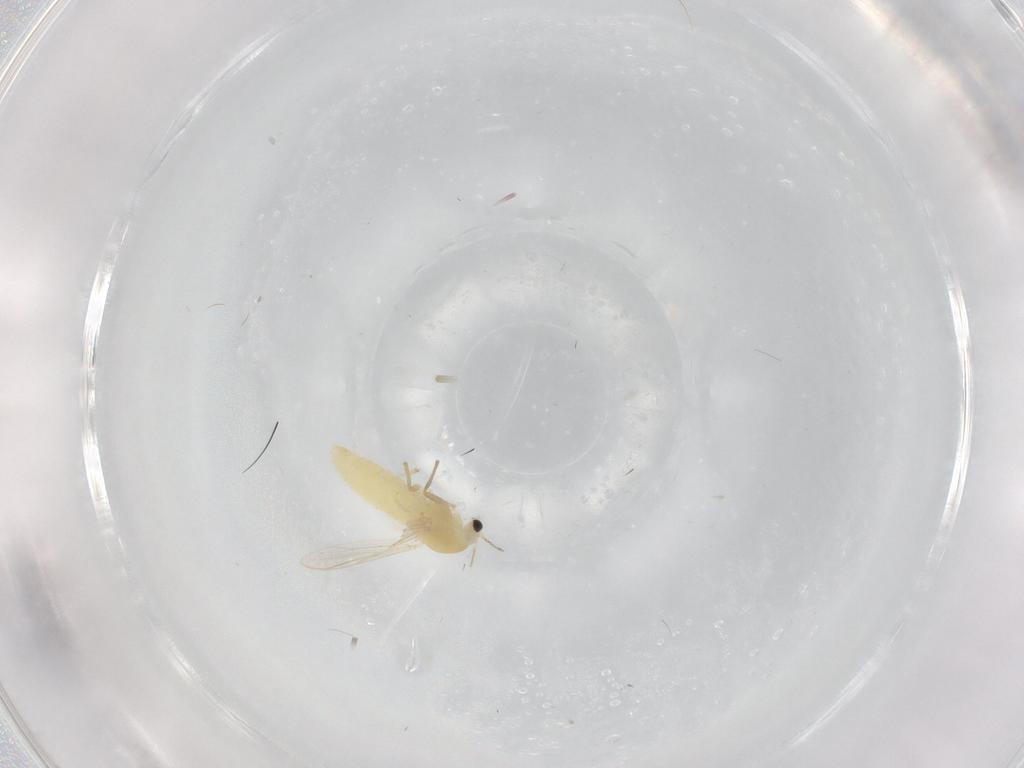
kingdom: Animalia
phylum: Arthropoda
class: Insecta
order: Diptera
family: Chironomidae
